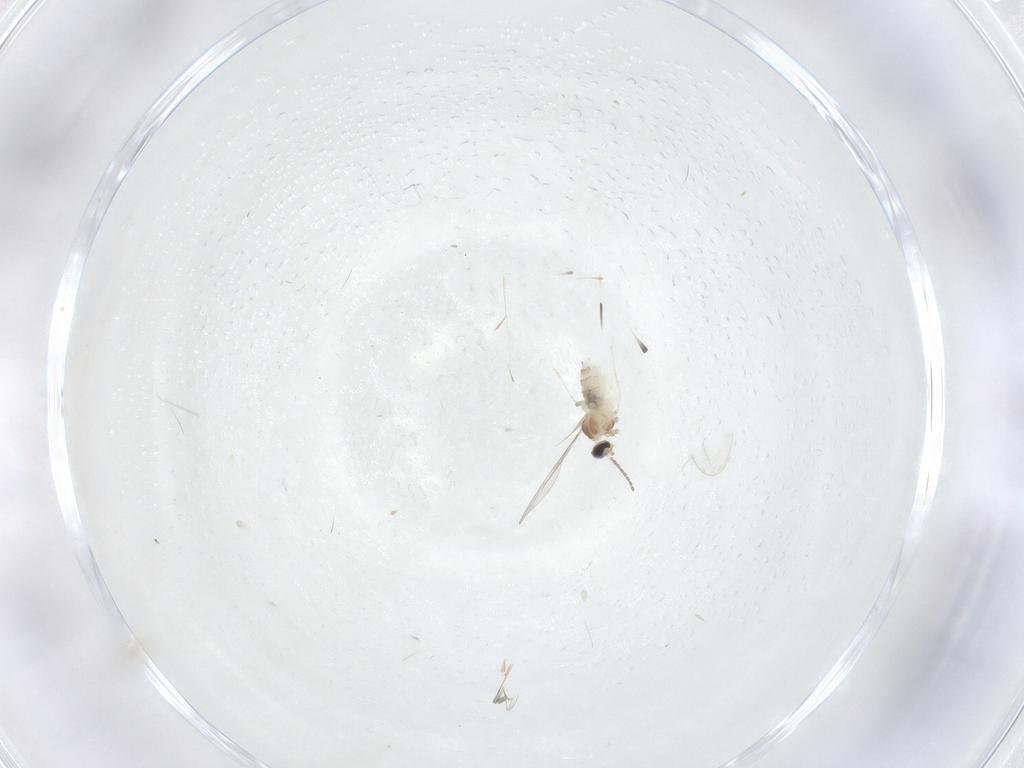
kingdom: Animalia
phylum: Arthropoda
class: Insecta
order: Diptera
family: Cecidomyiidae
